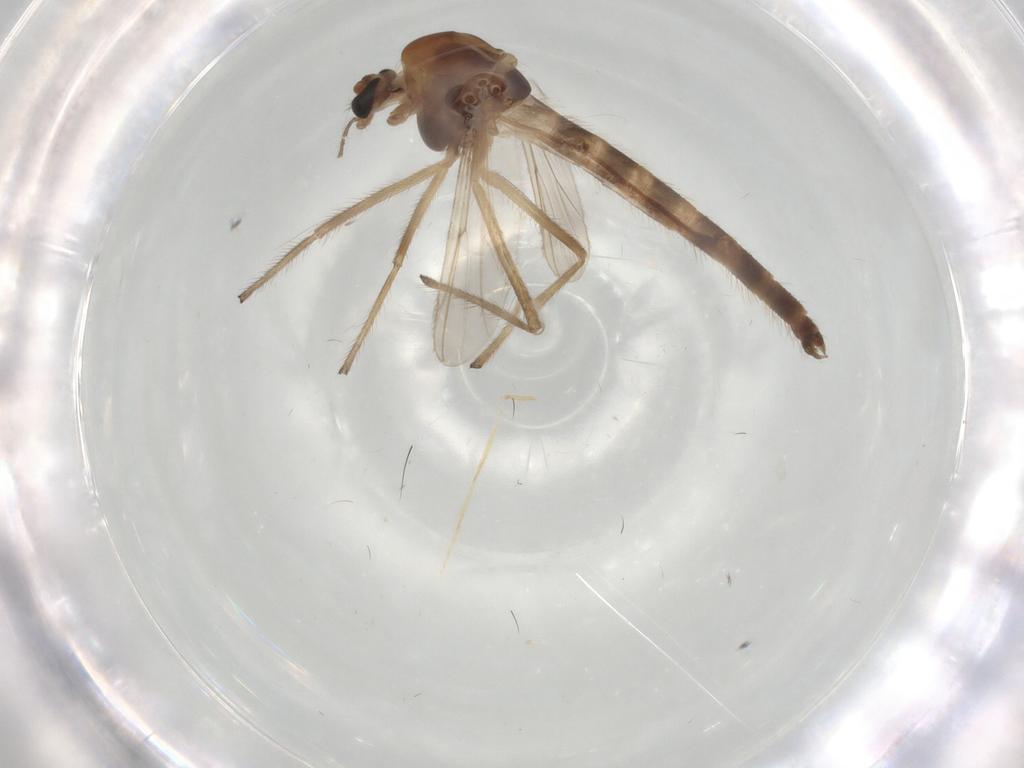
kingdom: Animalia
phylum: Arthropoda
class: Insecta
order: Diptera
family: Chironomidae
